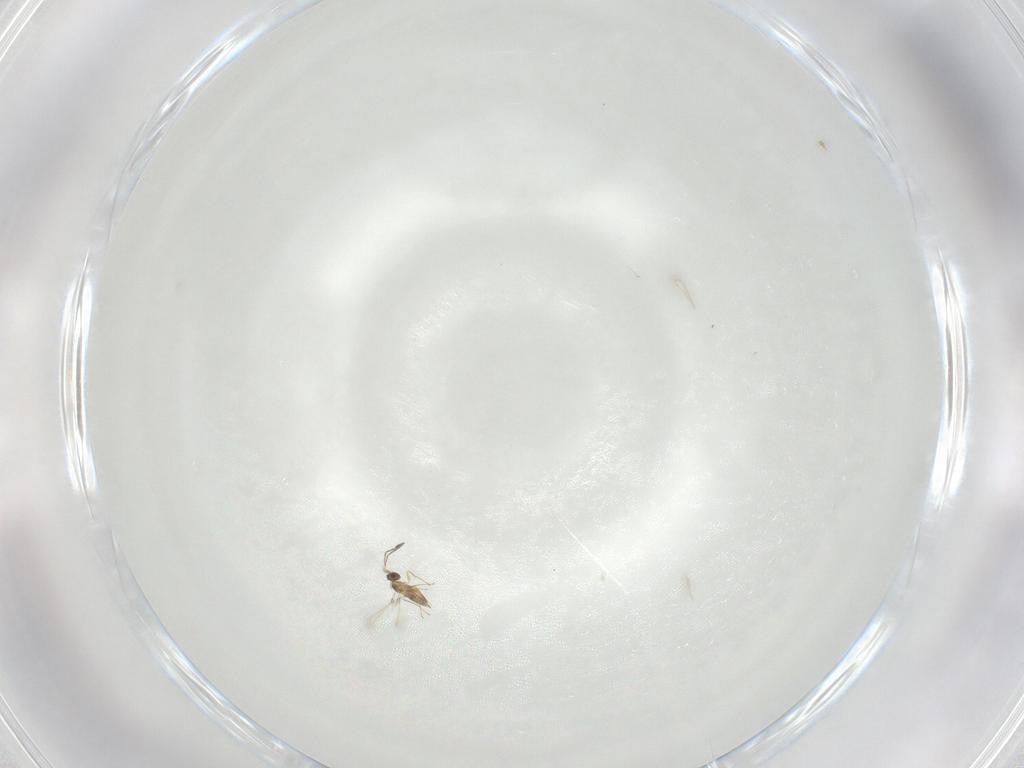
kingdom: Animalia
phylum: Arthropoda
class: Insecta
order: Hymenoptera
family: Mymaridae
